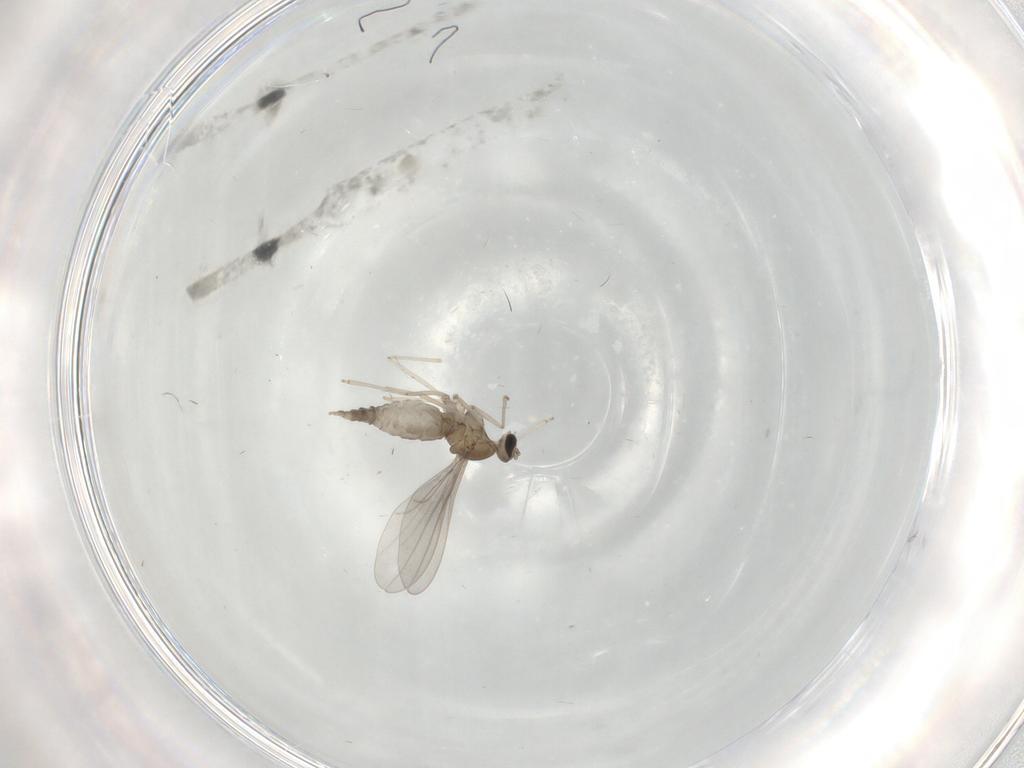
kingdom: Animalia
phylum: Arthropoda
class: Insecta
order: Diptera
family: Cecidomyiidae
